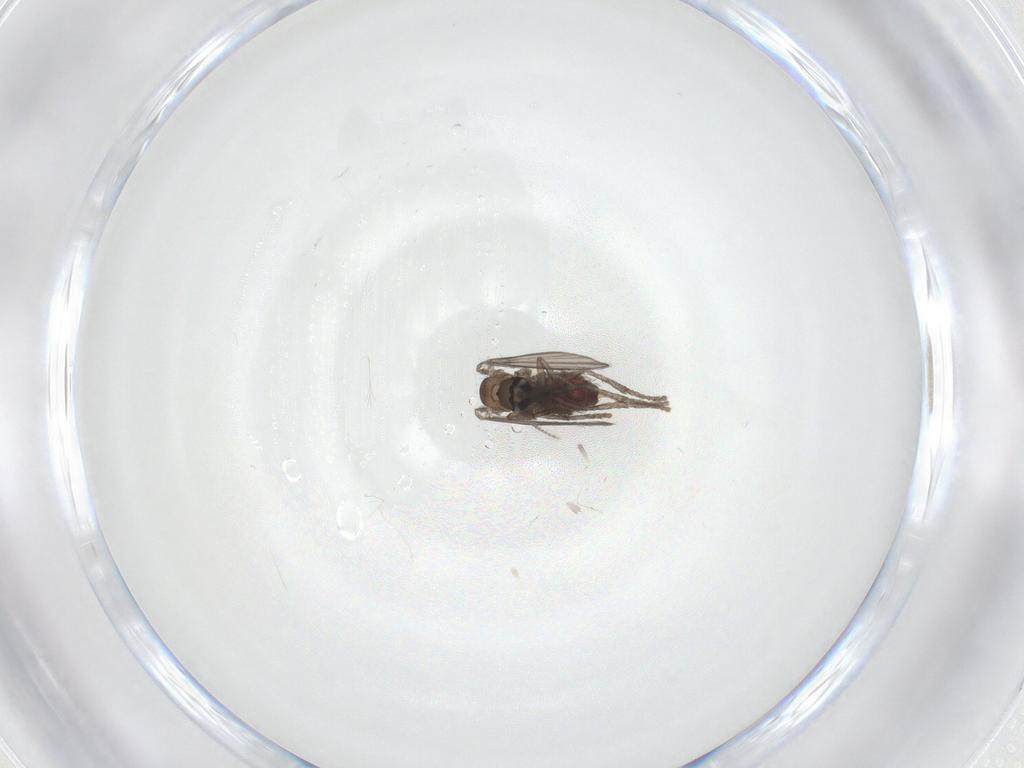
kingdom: Animalia
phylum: Arthropoda
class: Insecta
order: Diptera
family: Psychodidae
